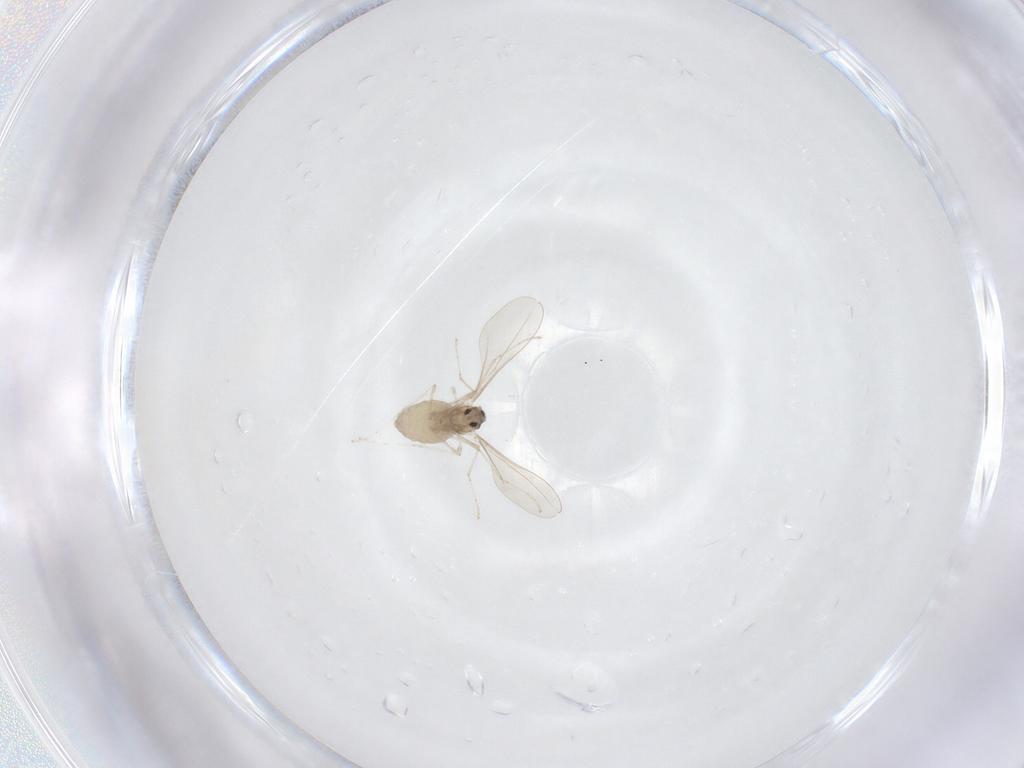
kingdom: Animalia
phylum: Arthropoda
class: Insecta
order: Diptera
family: Cecidomyiidae
